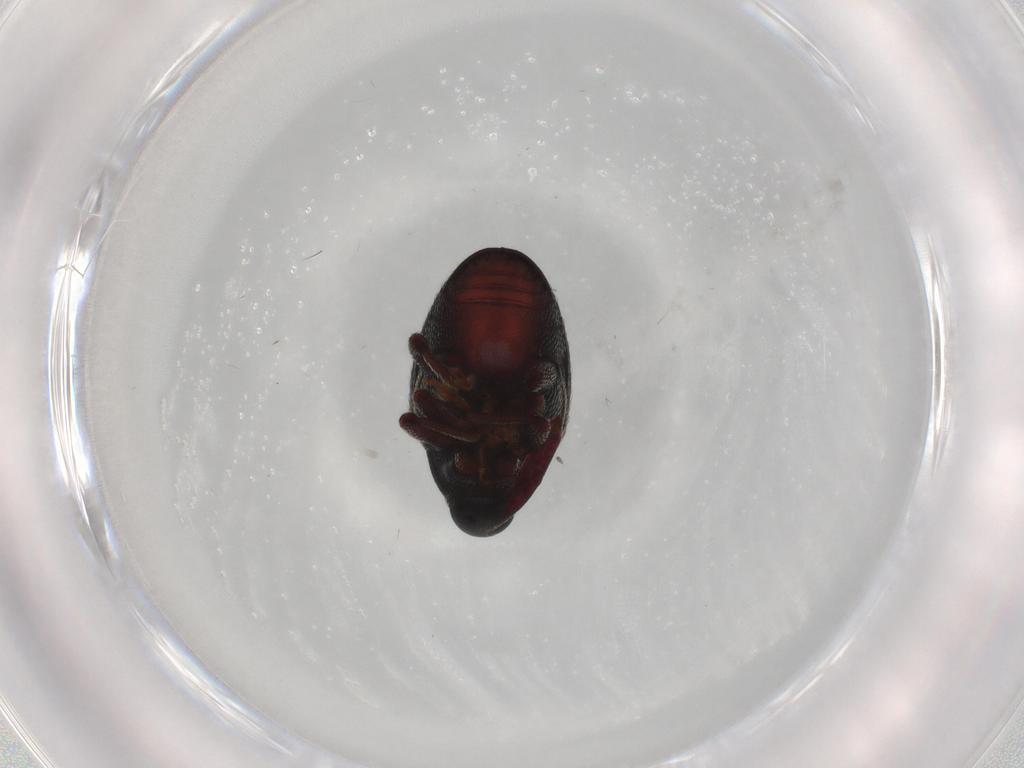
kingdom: Animalia
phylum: Arthropoda
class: Insecta
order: Coleoptera
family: Curculionidae
